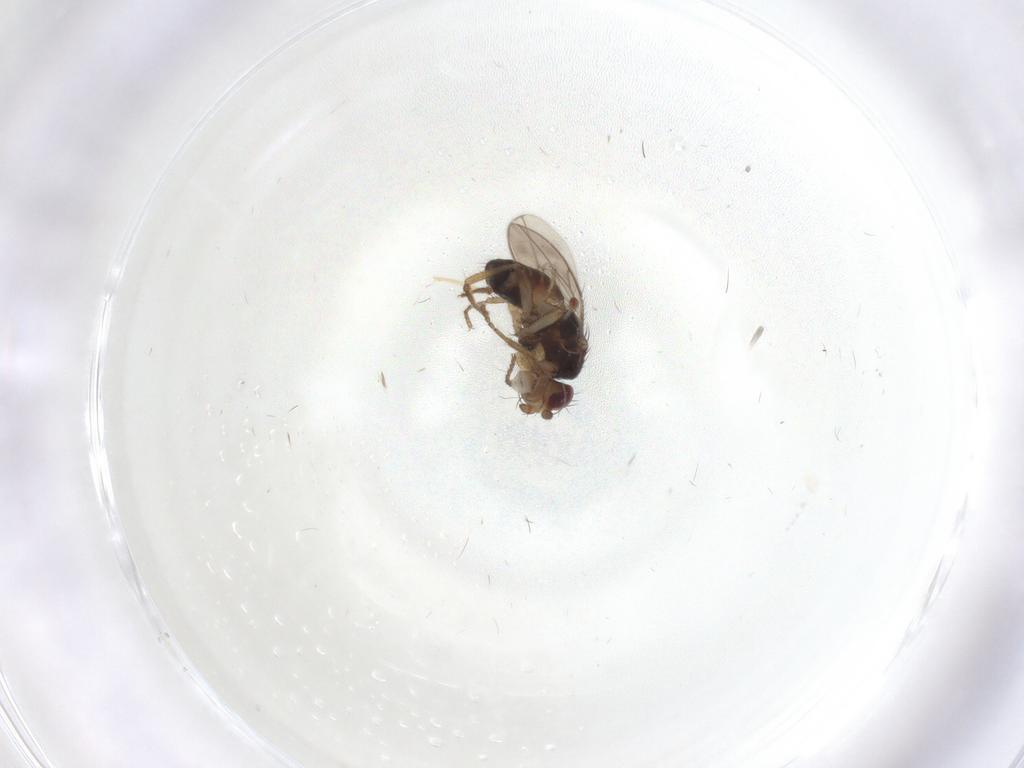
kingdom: Animalia
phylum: Arthropoda
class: Insecta
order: Diptera
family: Sphaeroceridae
